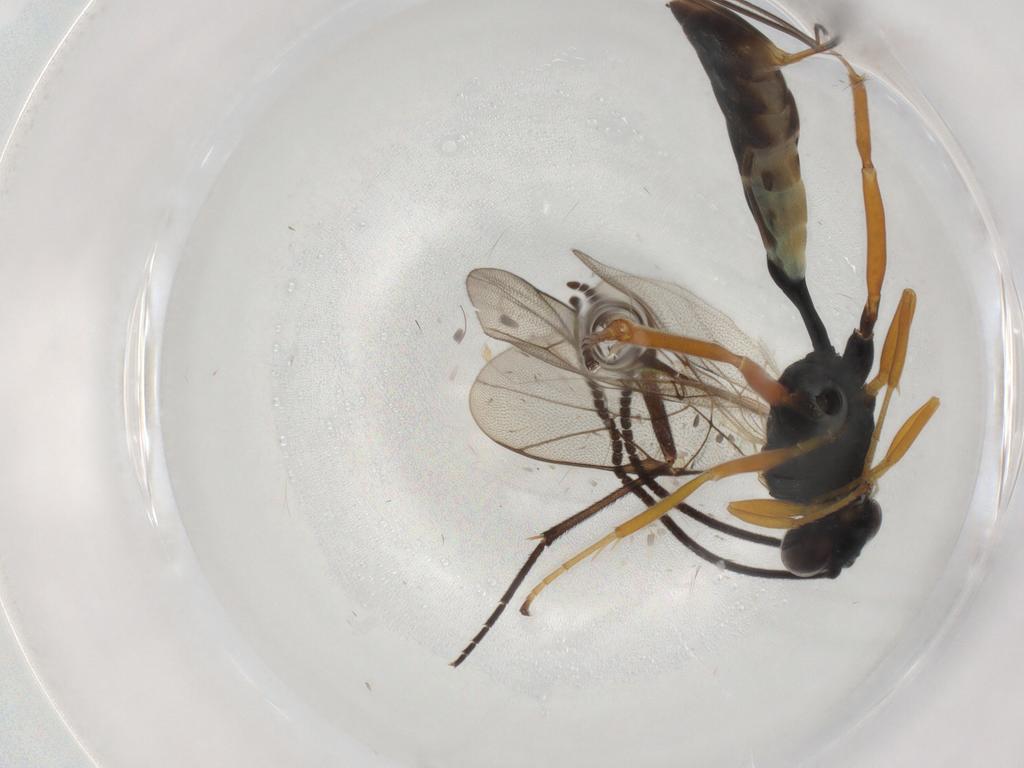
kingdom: Animalia
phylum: Arthropoda
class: Insecta
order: Hymenoptera
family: Ichneumonidae
